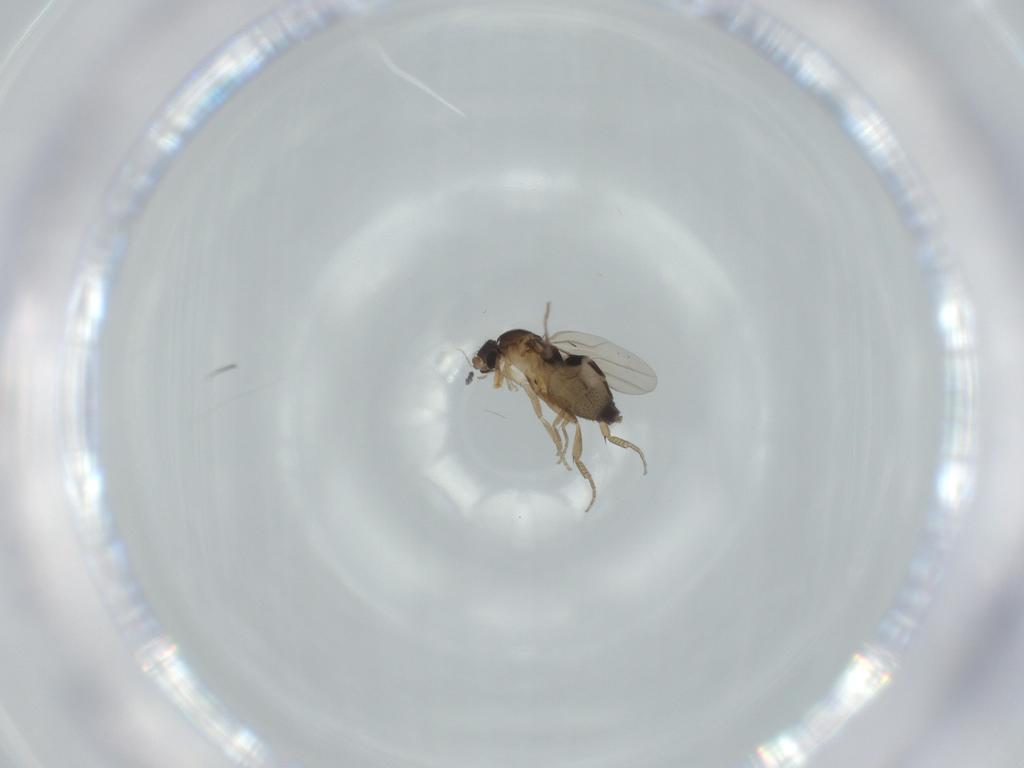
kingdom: Animalia
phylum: Arthropoda
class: Insecta
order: Diptera
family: Phoridae
